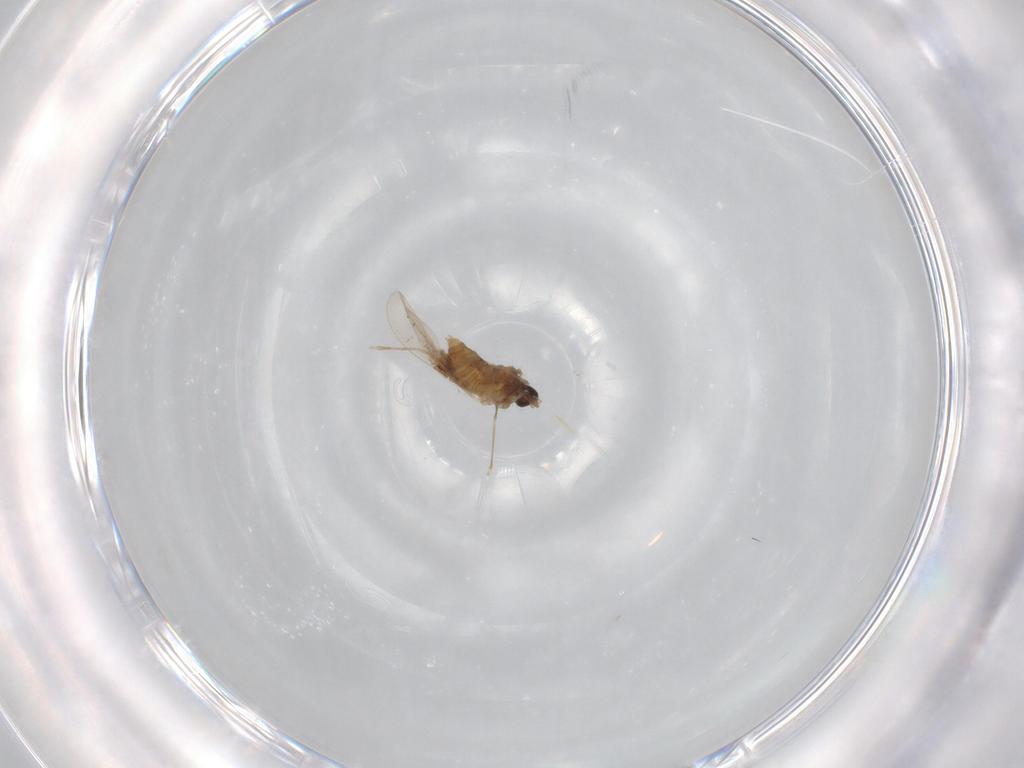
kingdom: Animalia
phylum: Arthropoda
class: Insecta
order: Diptera
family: Cecidomyiidae
